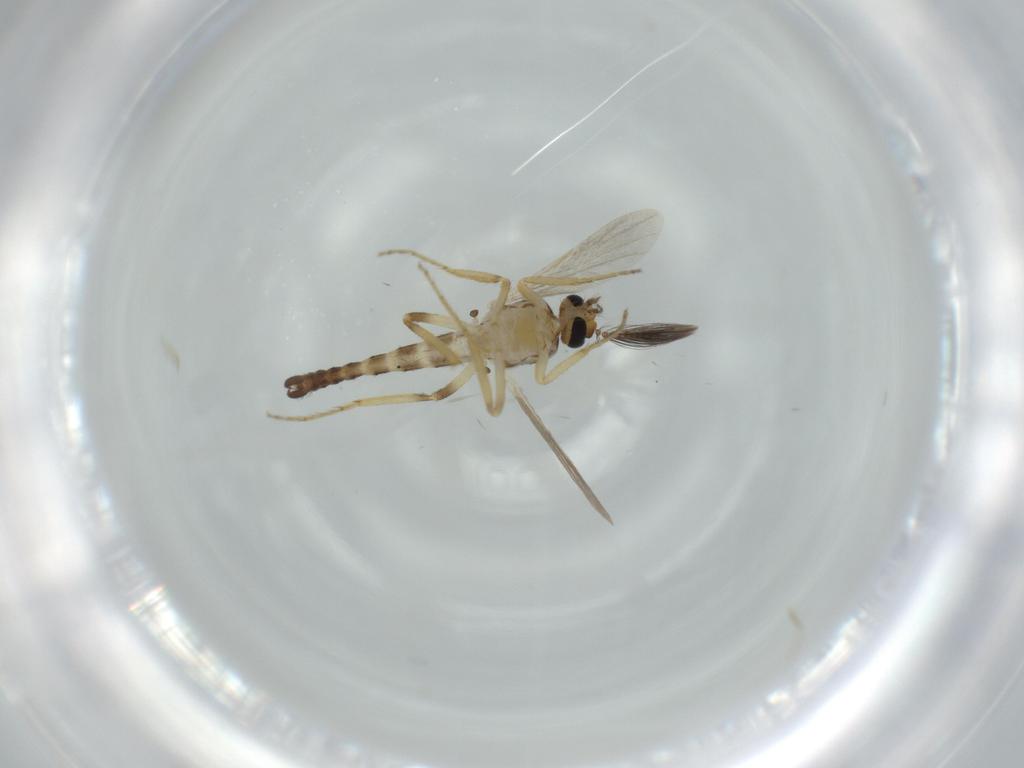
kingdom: Animalia
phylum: Arthropoda
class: Insecta
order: Diptera
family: Ceratopogonidae
